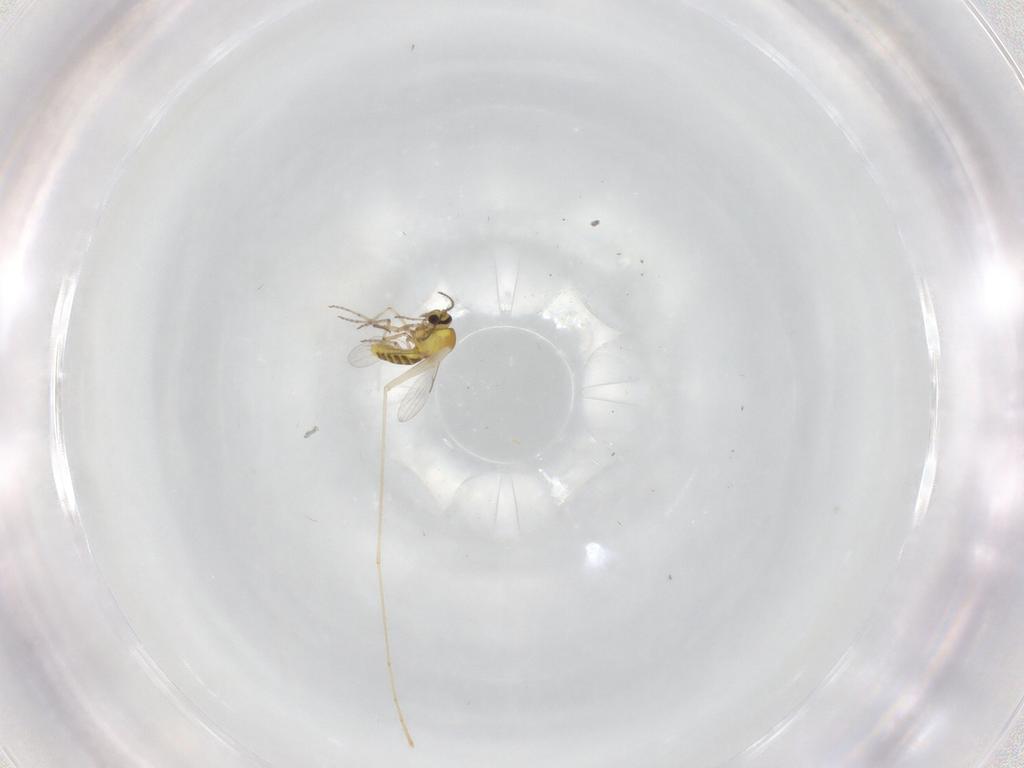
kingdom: Animalia
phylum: Arthropoda
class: Insecta
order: Diptera
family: Ceratopogonidae
